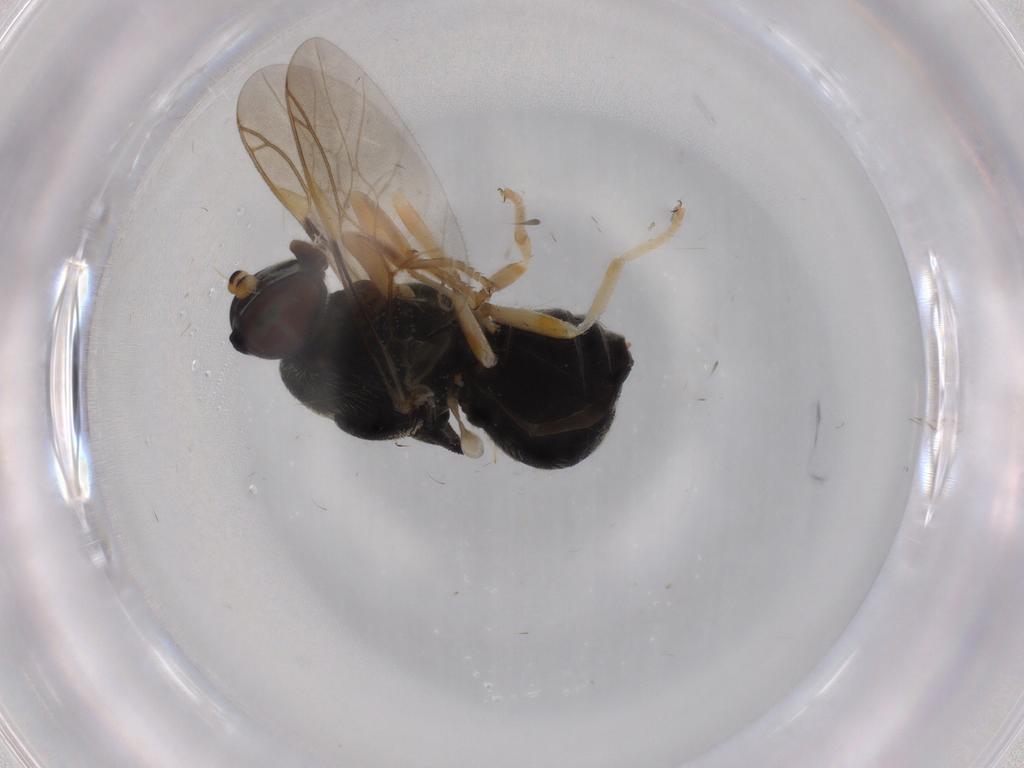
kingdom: Animalia
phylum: Arthropoda
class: Insecta
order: Diptera
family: Stratiomyidae
